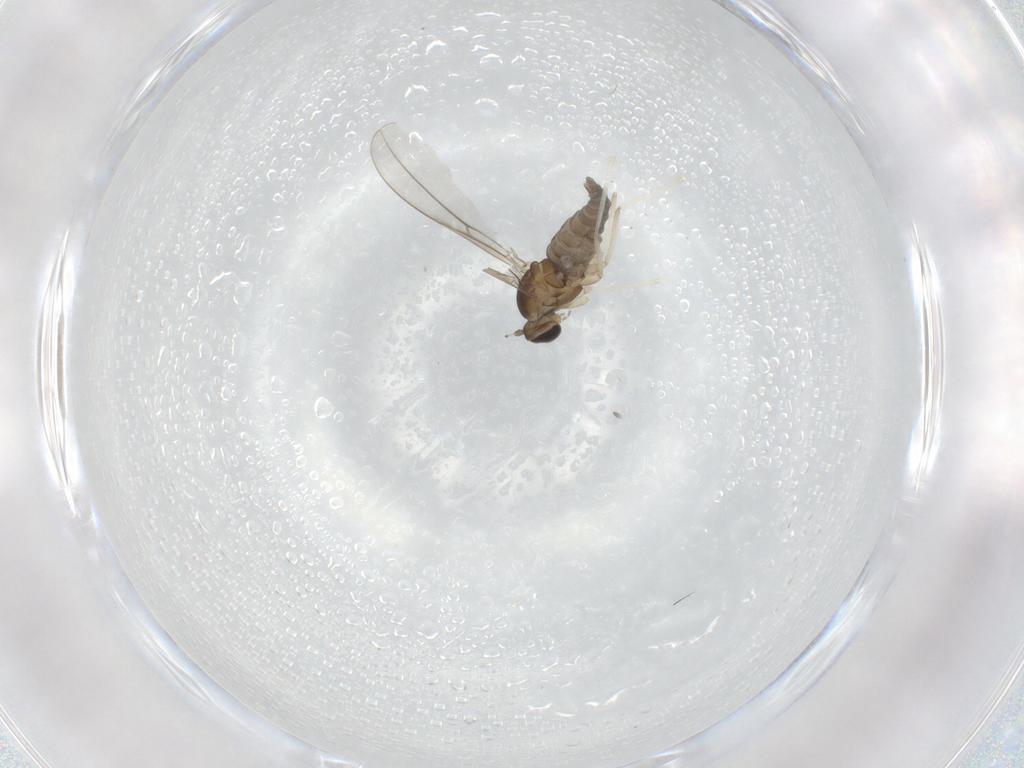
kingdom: Animalia
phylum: Arthropoda
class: Insecta
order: Diptera
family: Cecidomyiidae
